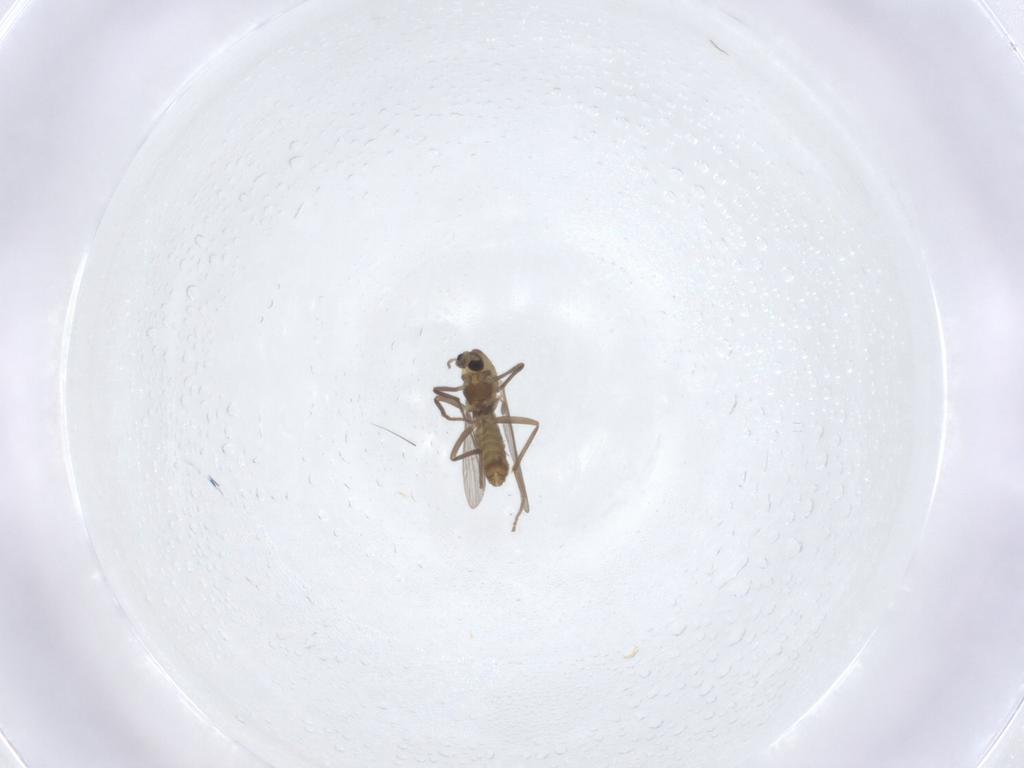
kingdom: Animalia
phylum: Arthropoda
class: Insecta
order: Diptera
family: Chironomidae
